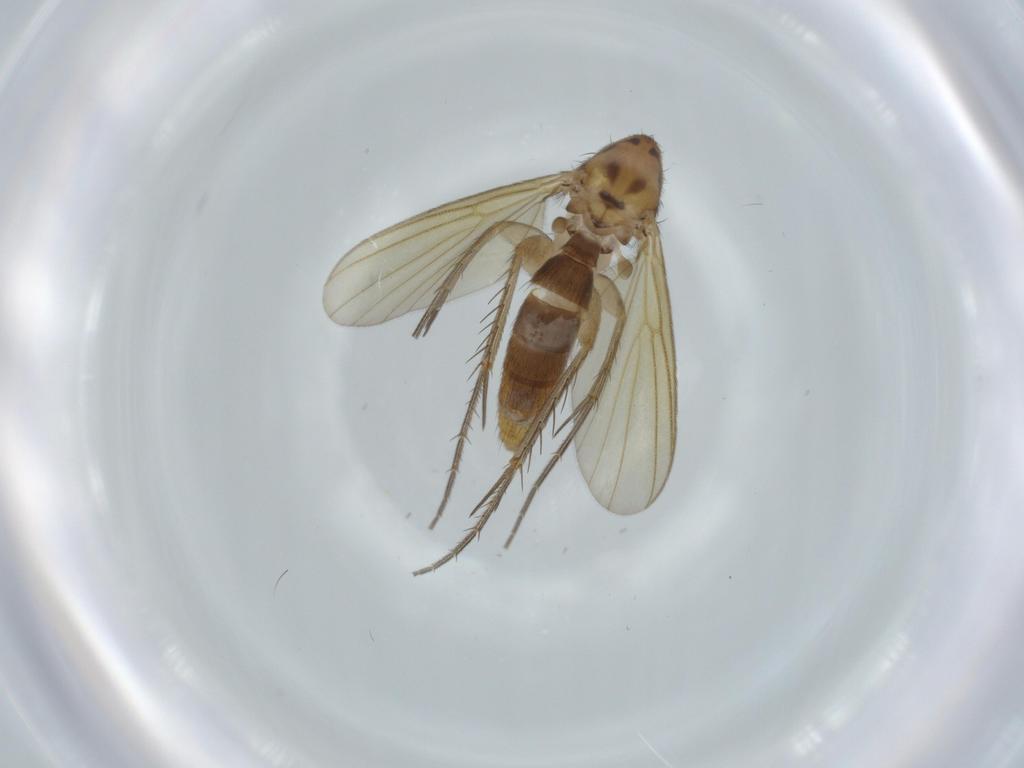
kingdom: Animalia
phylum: Arthropoda
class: Insecta
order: Diptera
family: Mycetophilidae
